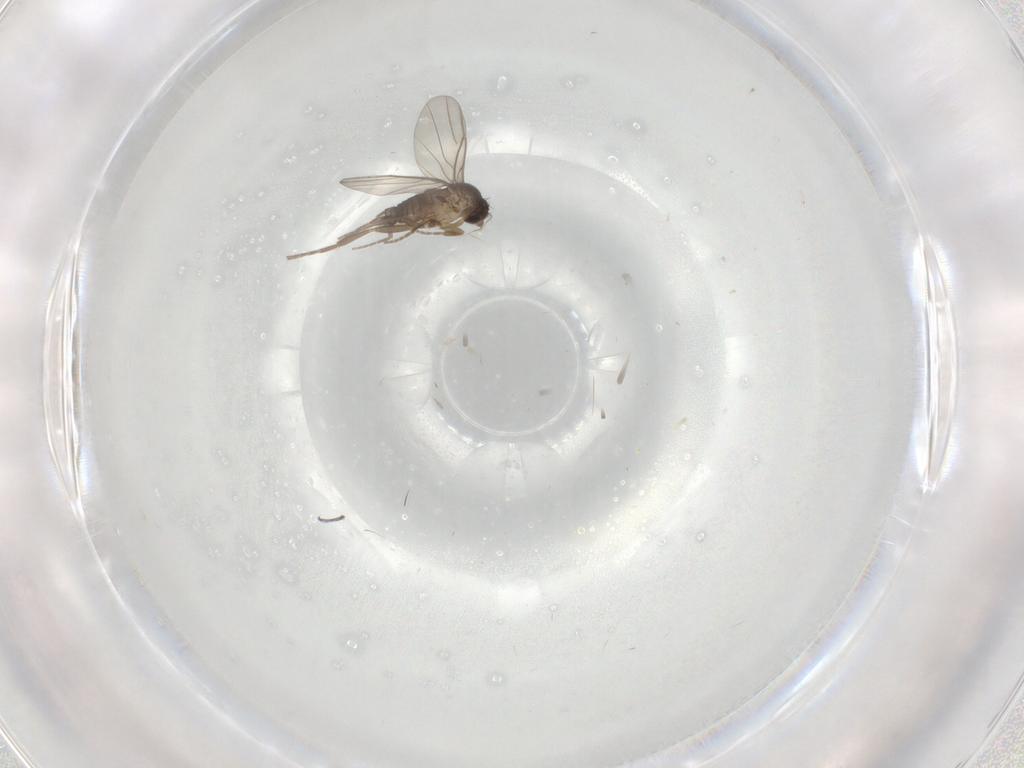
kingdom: Animalia
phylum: Arthropoda
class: Insecta
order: Diptera
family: Phoridae
